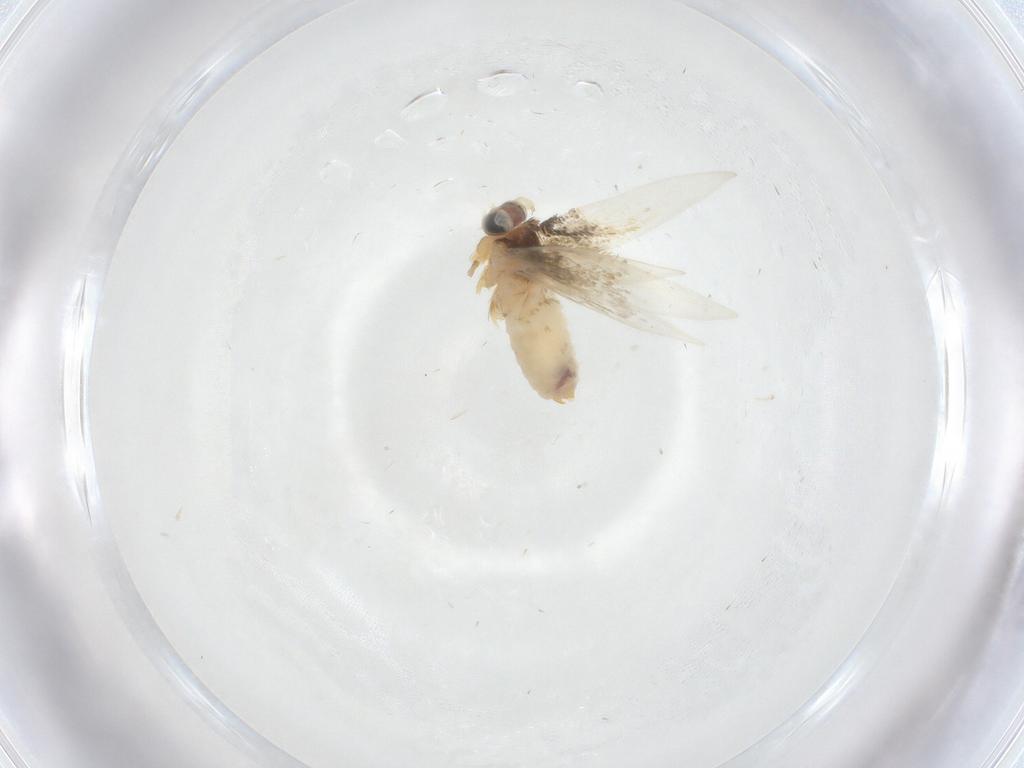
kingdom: Animalia
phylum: Arthropoda
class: Insecta
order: Lepidoptera
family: Nepticulidae
